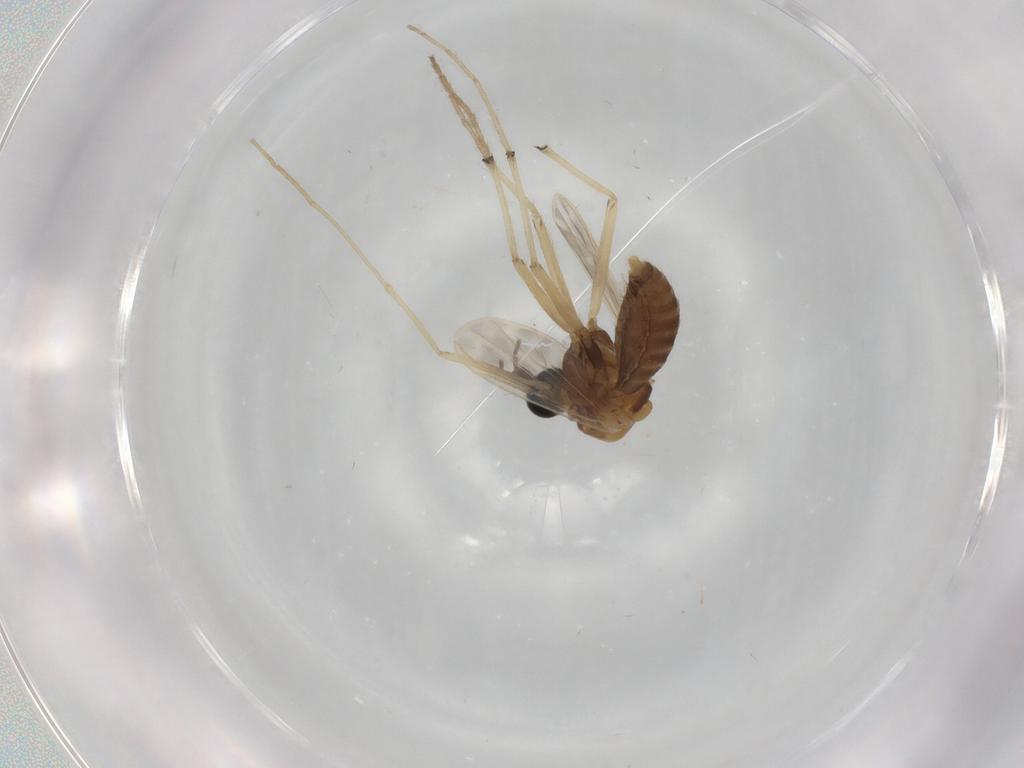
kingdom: Animalia
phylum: Arthropoda
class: Insecta
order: Diptera
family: Chironomidae
